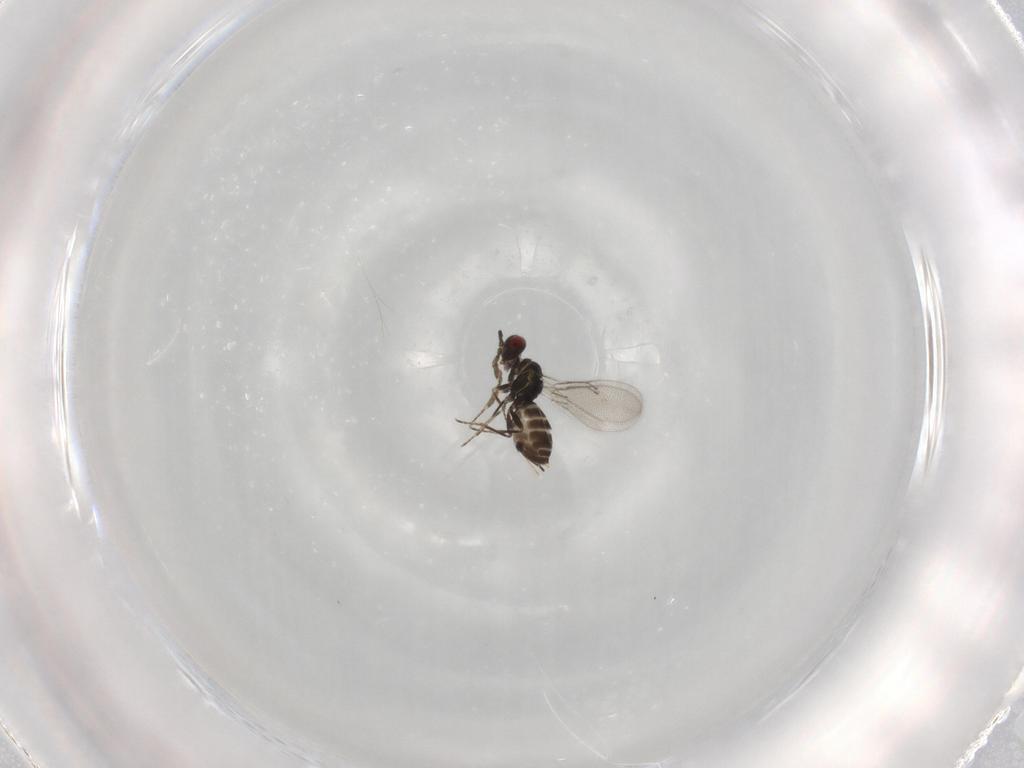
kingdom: Animalia
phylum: Arthropoda
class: Insecta
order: Hymenoptera
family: Eulophidae
